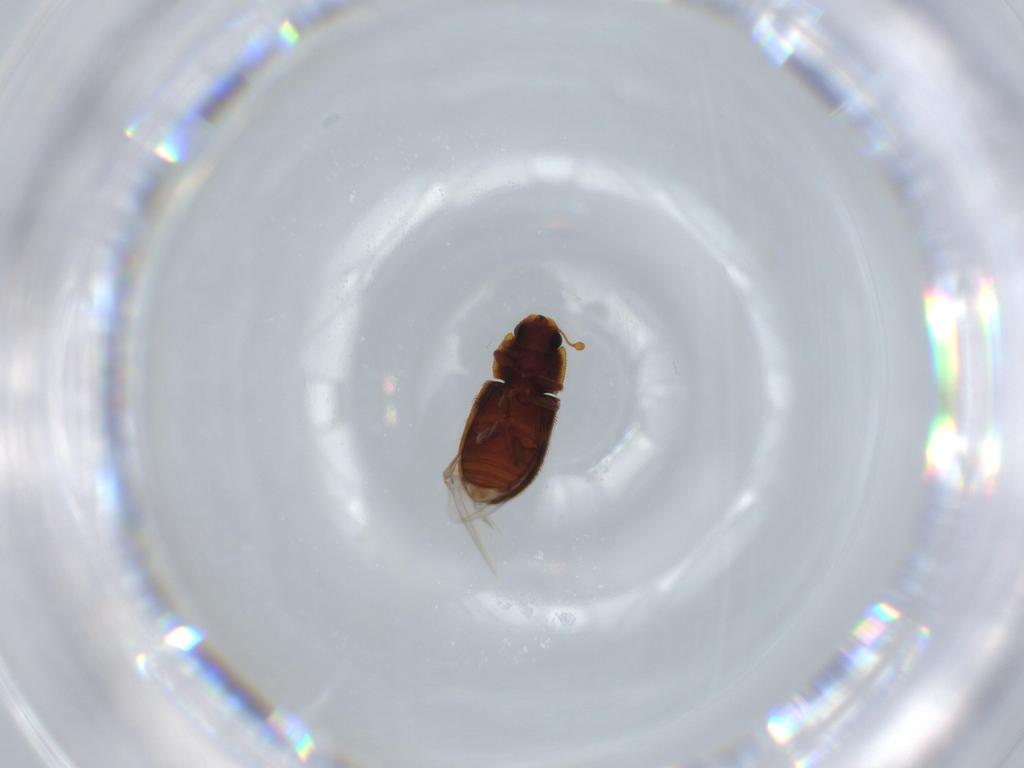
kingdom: Animalia
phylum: Arthropoda
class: Insecta
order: Coleoptera
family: Zopheridae
